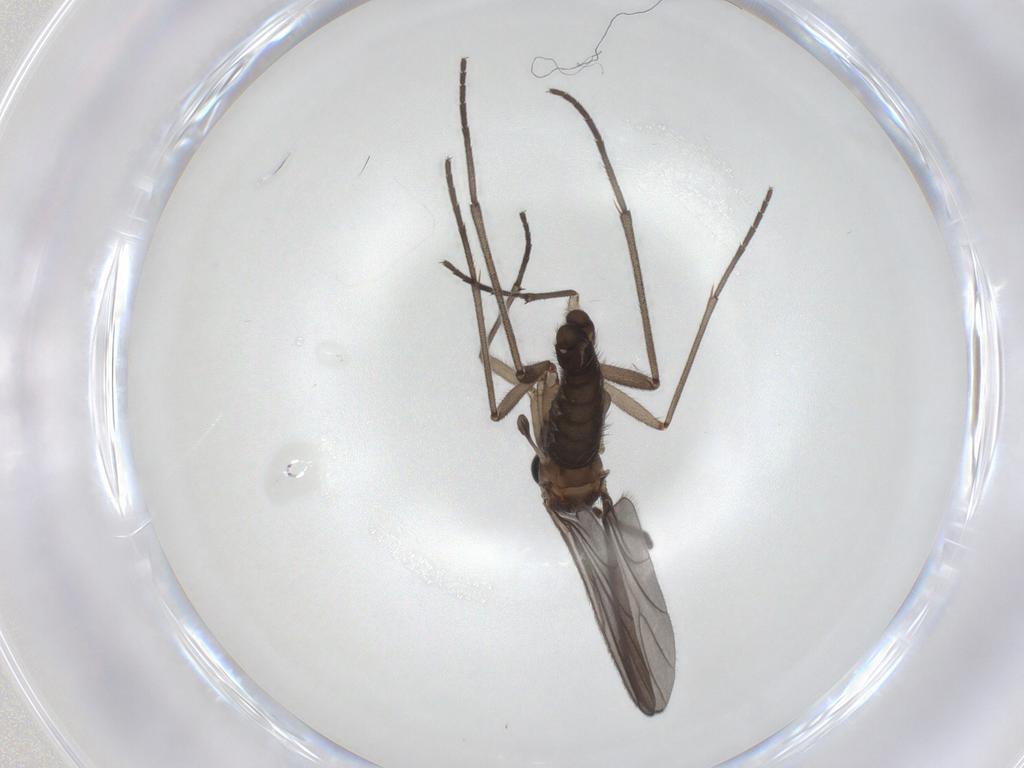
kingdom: Animalia
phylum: Arthropoda
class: Insecta
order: Diptera
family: Sciaridae
